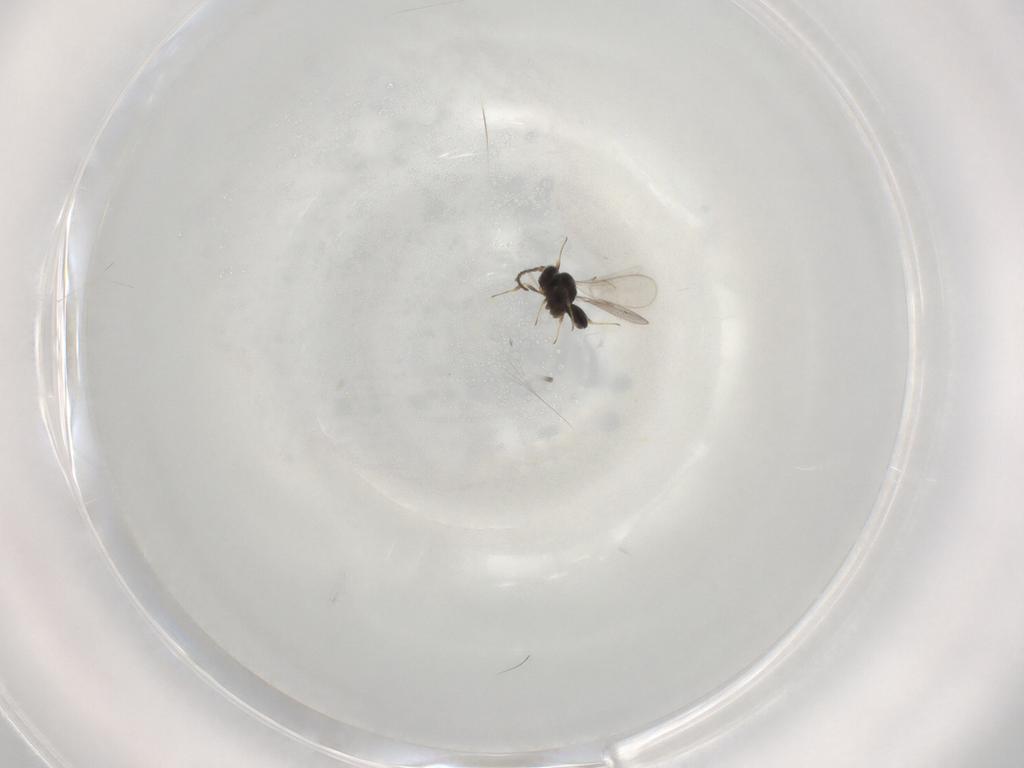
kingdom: Animalia
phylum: Arthropoda
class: Insecta
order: Hymenoptera
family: Scelionidae
